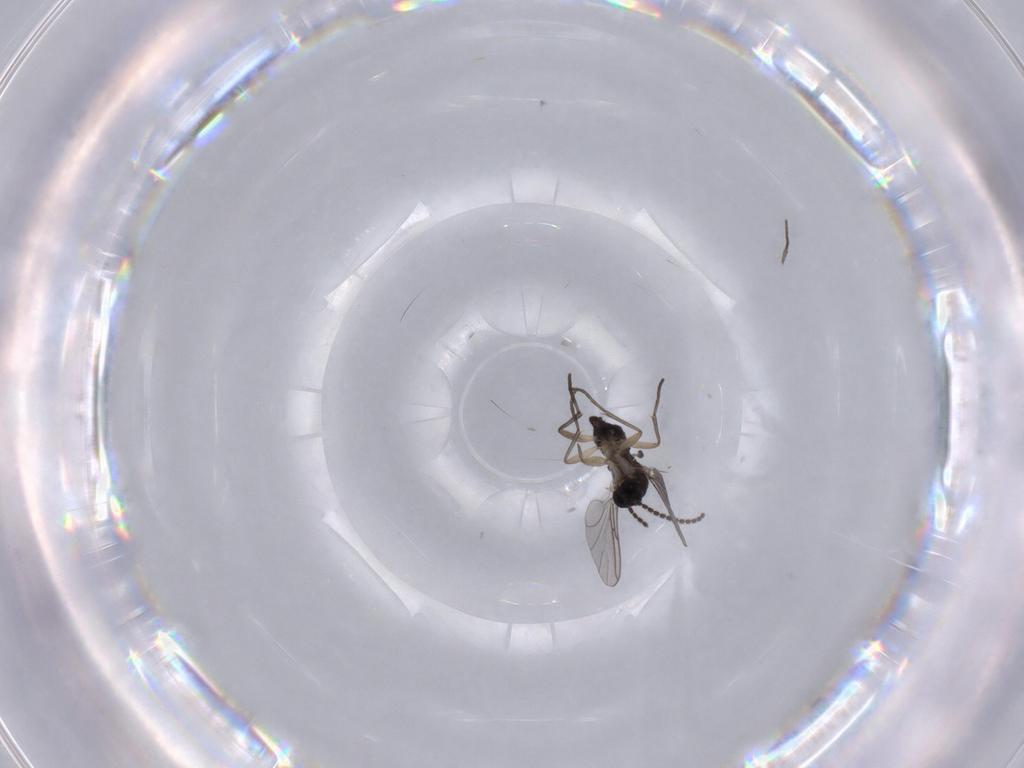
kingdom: Animalia
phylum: Arthropoda
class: Insecta
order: Diptera
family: Sciaridae
